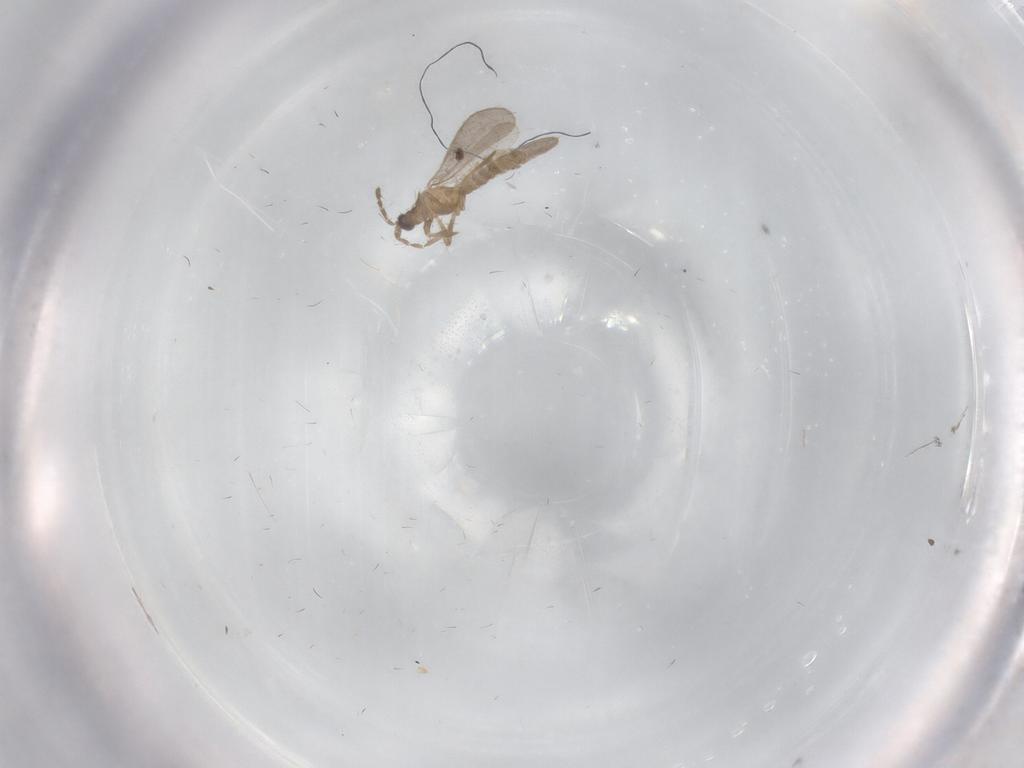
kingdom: Animalia
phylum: Arthropoda
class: Insecta
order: Hemiptera
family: Enicocephalidae
